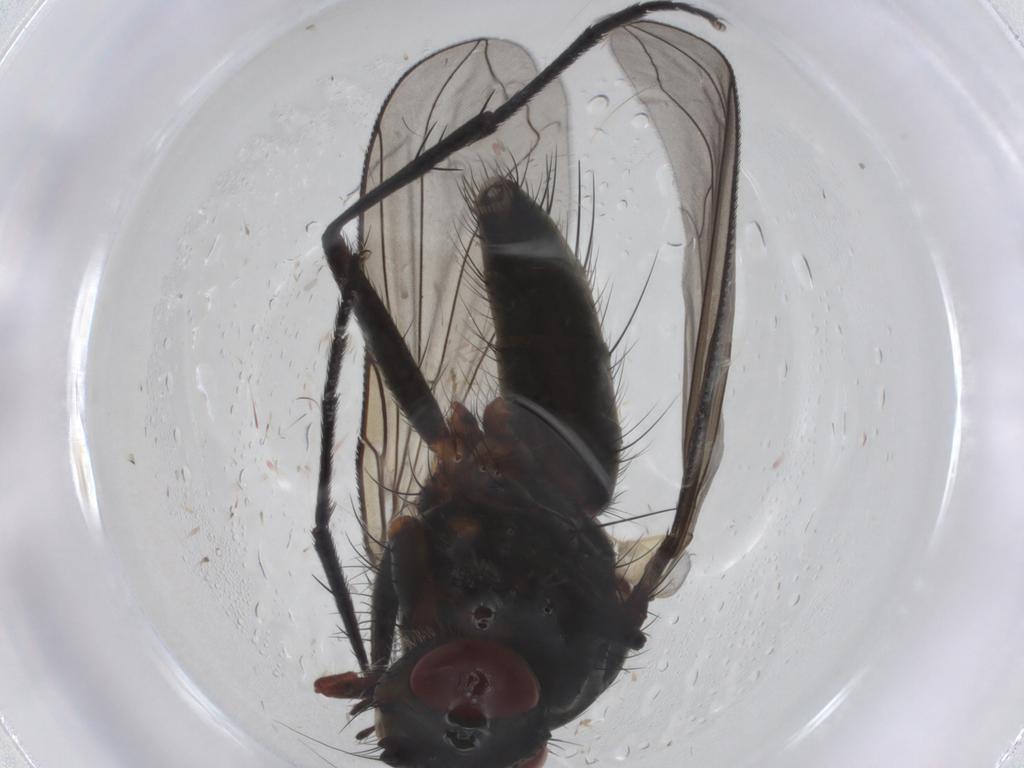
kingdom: Animalia
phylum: Arthropoda
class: Insecta
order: Diptera
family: Tachinidae
